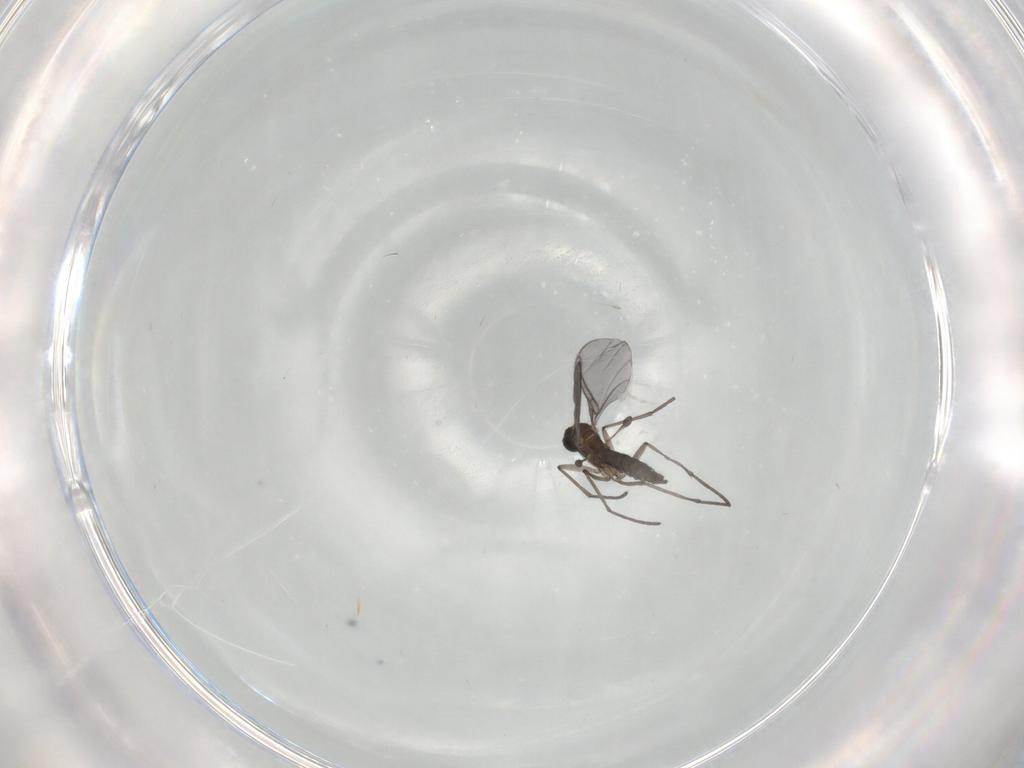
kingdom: Animalia
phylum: Arthropoda
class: Insecta
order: Diptera
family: Sciaridae
